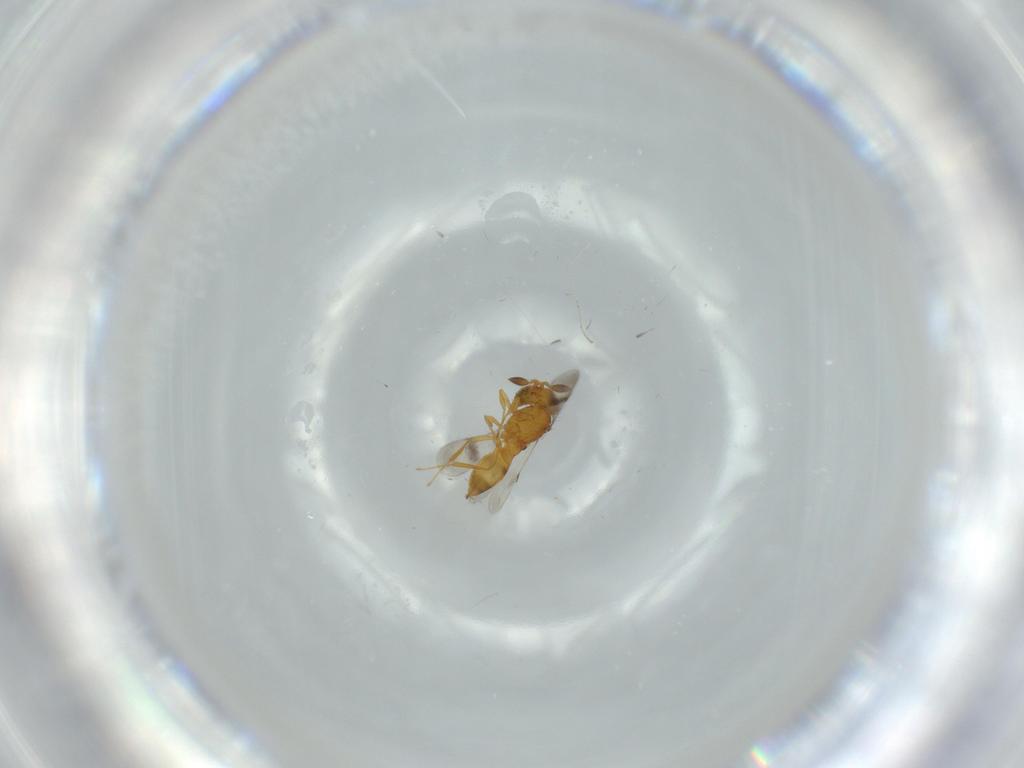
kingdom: Animalia
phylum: Arthropoda
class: Insecta
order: Hymenoptera
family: Scelionidae
